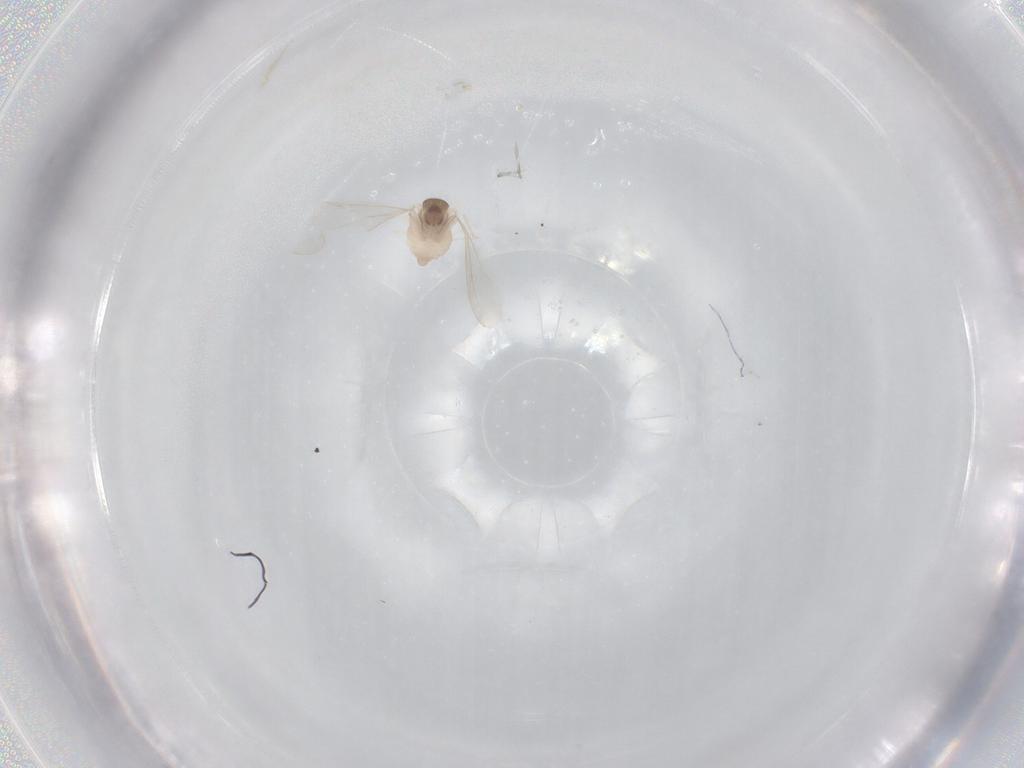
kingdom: Animalia
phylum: Arthropoda
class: Insecta
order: Diptera
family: Cecidomyiidae
